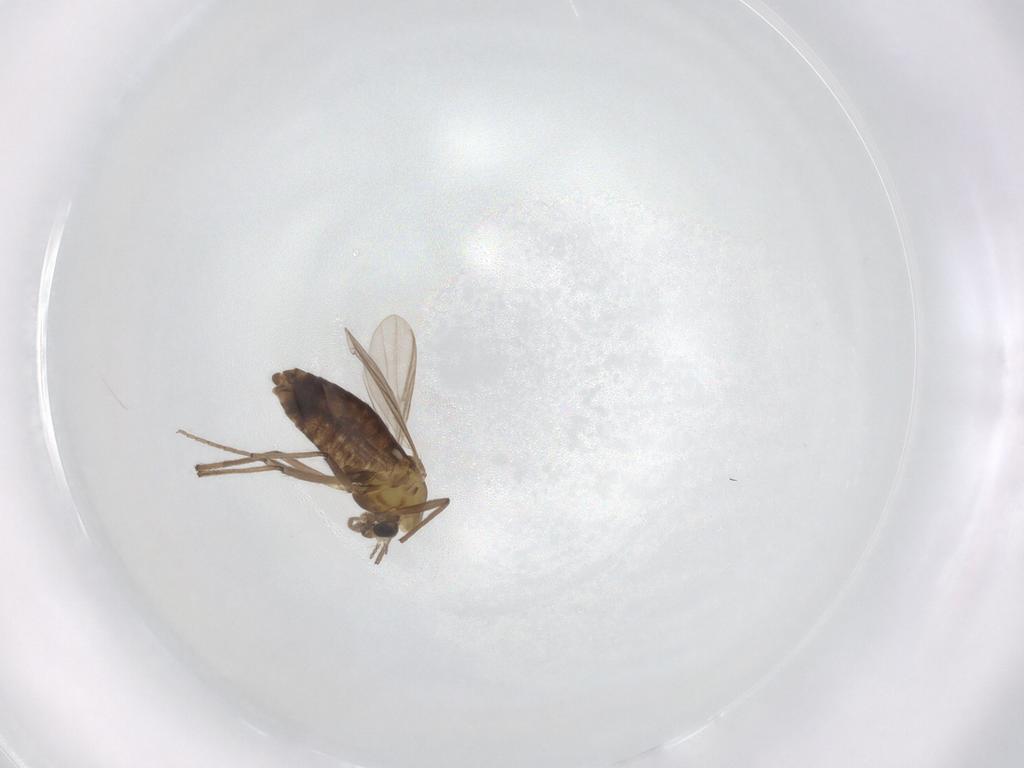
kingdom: Animalia
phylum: Arthropoda
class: Insecta
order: Diptera
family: Chironomidae
